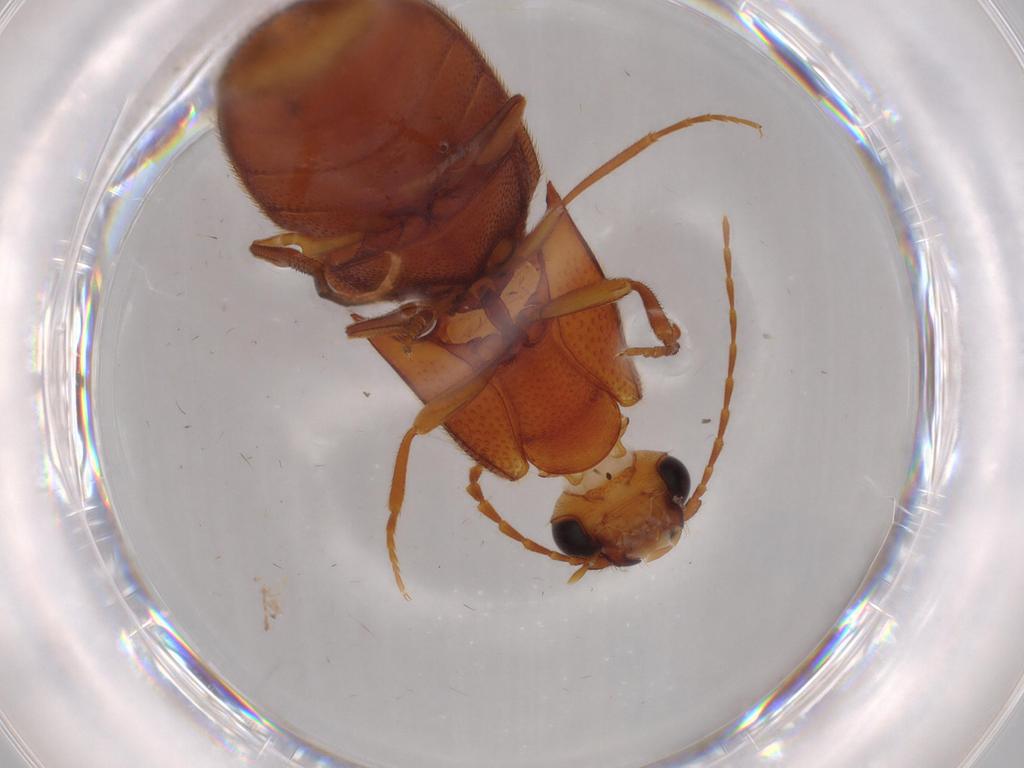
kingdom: Animalia
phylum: Arthropoda
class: Insecta
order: Coleoptera
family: Elateridae
